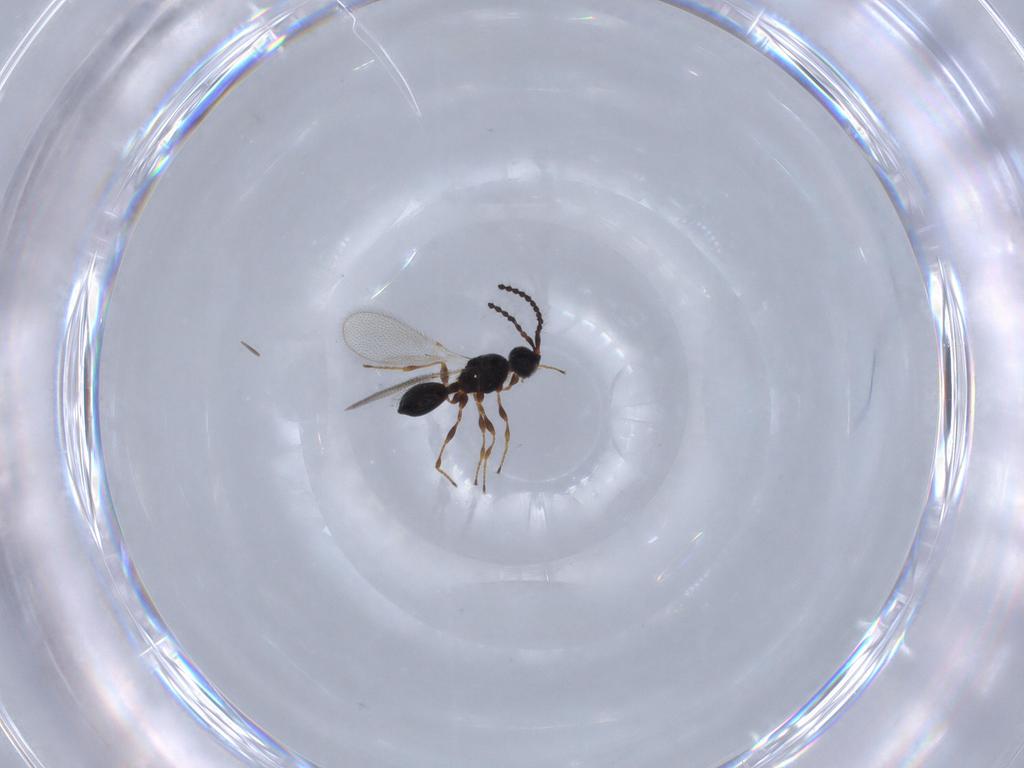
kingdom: Animalia
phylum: Arthropoda
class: Insecta
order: Hymenoptera
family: Diapriidae
